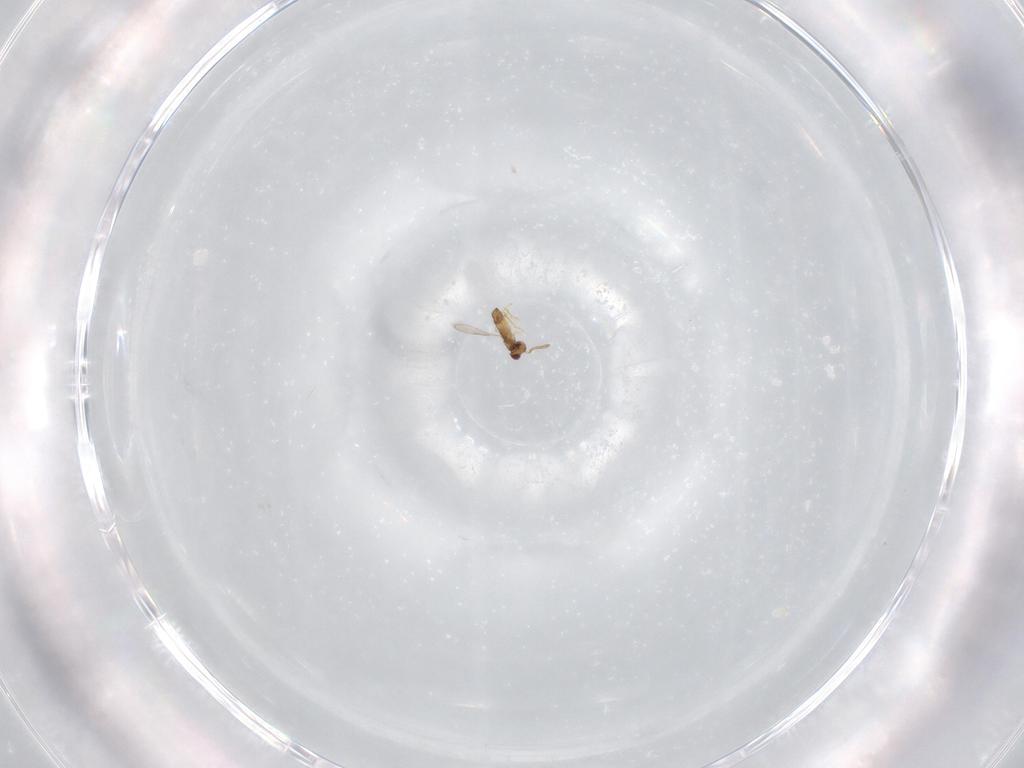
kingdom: Animalia
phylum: Arthropoda
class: Insecta
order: Hymenoptera
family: Aphelinidae
